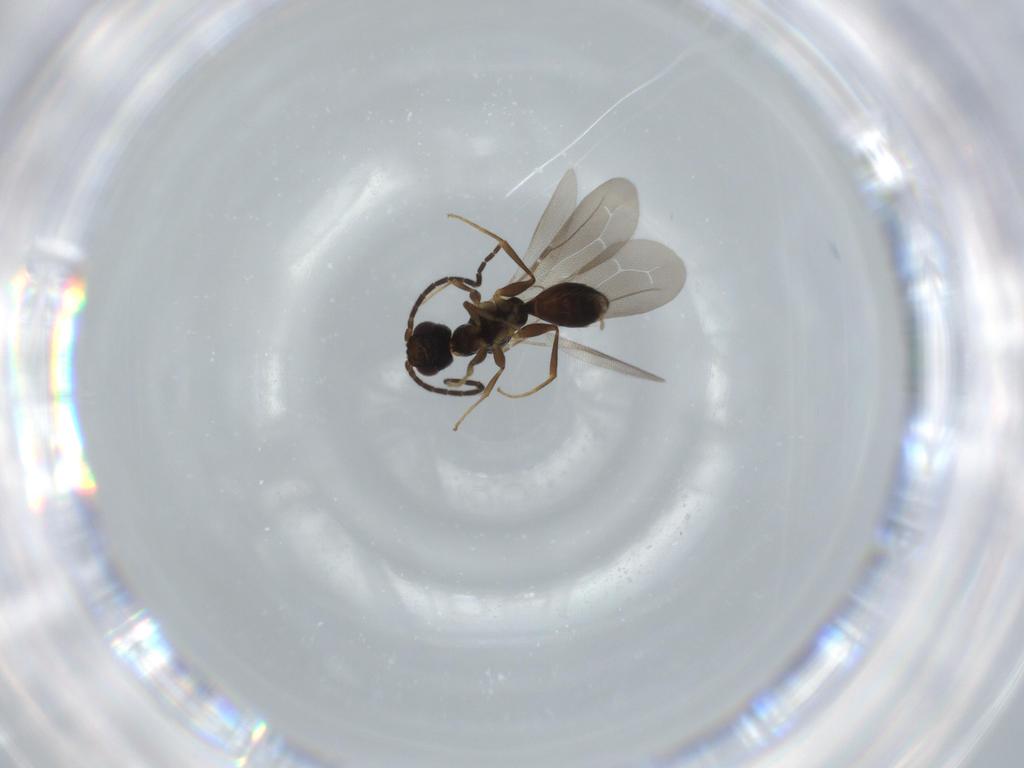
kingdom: Animalia
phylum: Arthropoda
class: Insecta
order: Hymenoptera
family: Bethylidae
